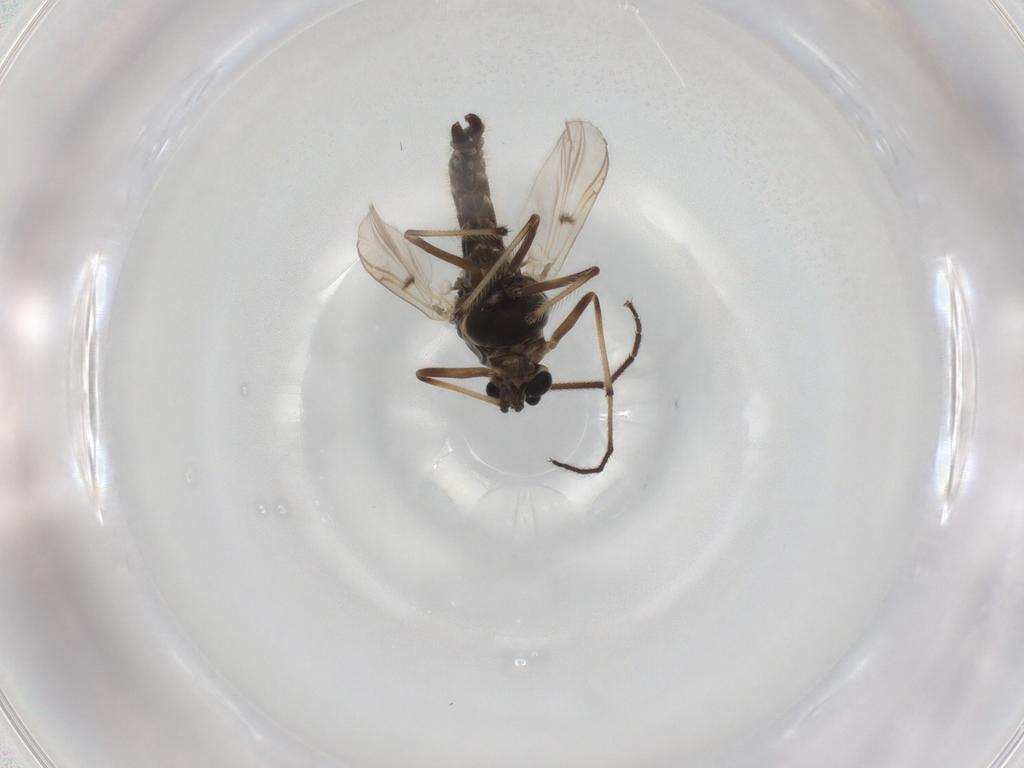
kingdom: Animalia
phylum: Arthropoda
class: Insecta
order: Diptera
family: Chironomidae
